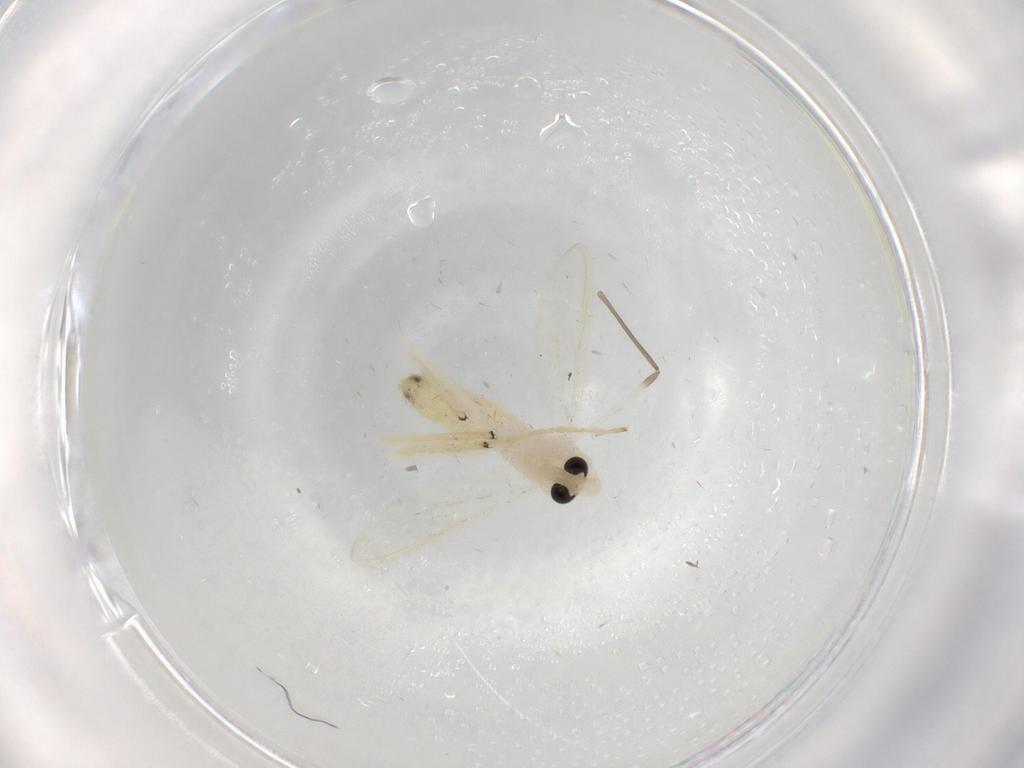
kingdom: Animalia
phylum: Arthropoda
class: Insecta
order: Diptera
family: Chironomidae
